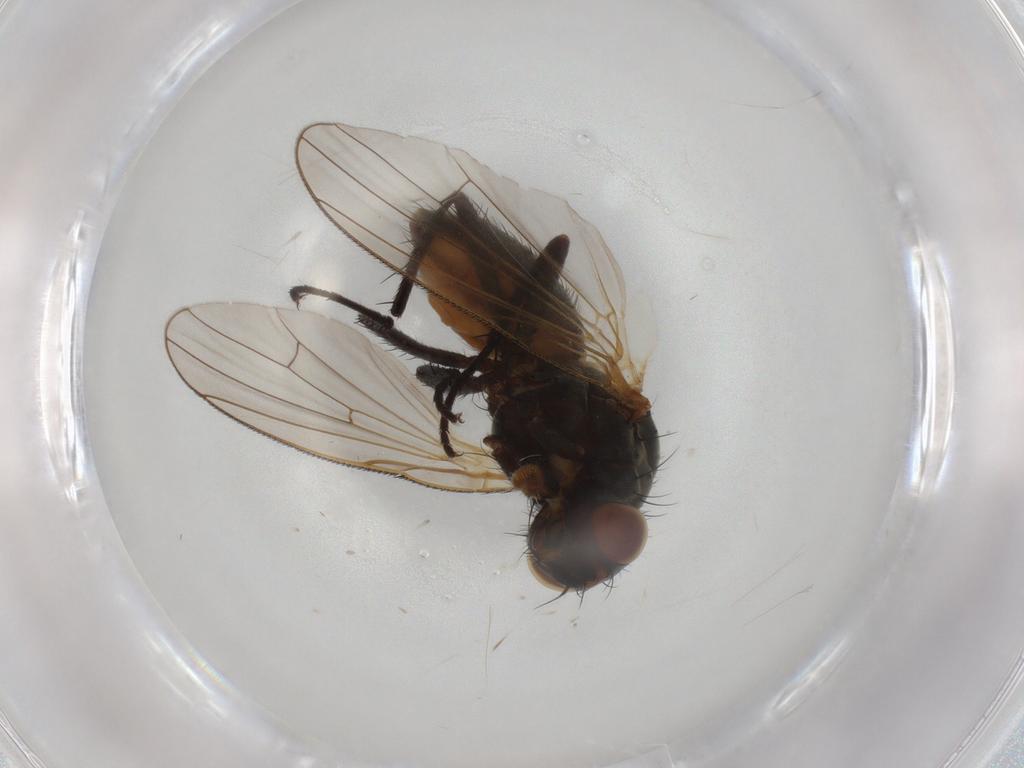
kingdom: Animalia
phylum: Arthropoda
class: Insecta
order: Diptera
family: Anthomyiidae
